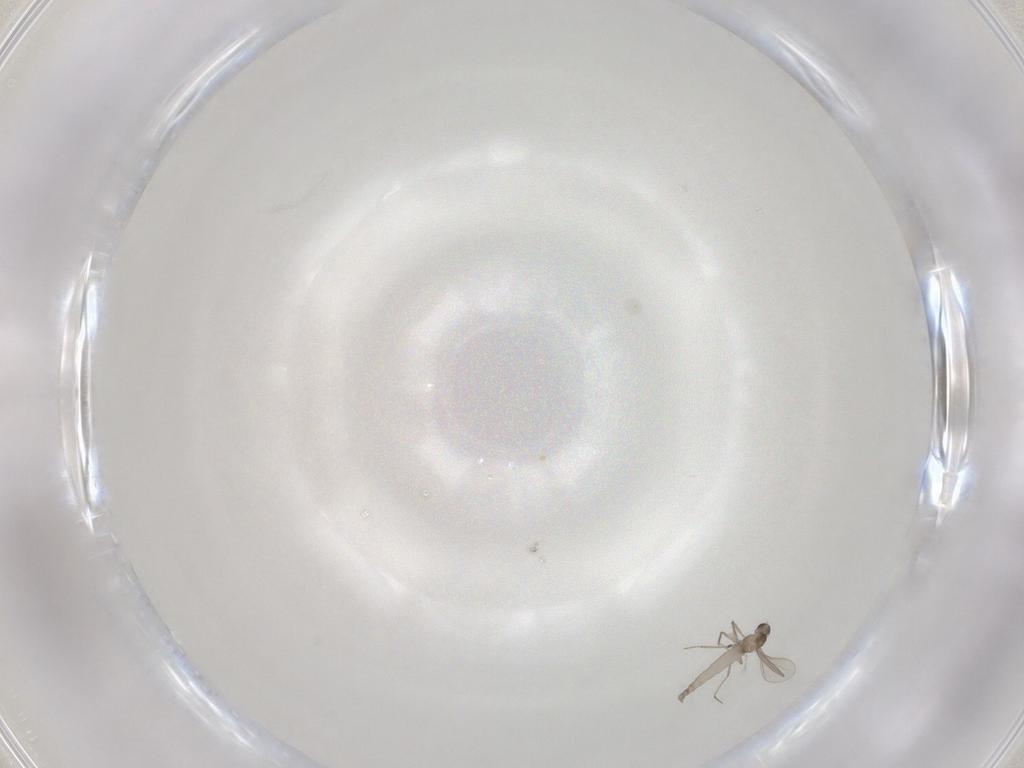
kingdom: Animalia
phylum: Arthropoda
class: Insecta
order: Diptera
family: Cecidomyiidae
